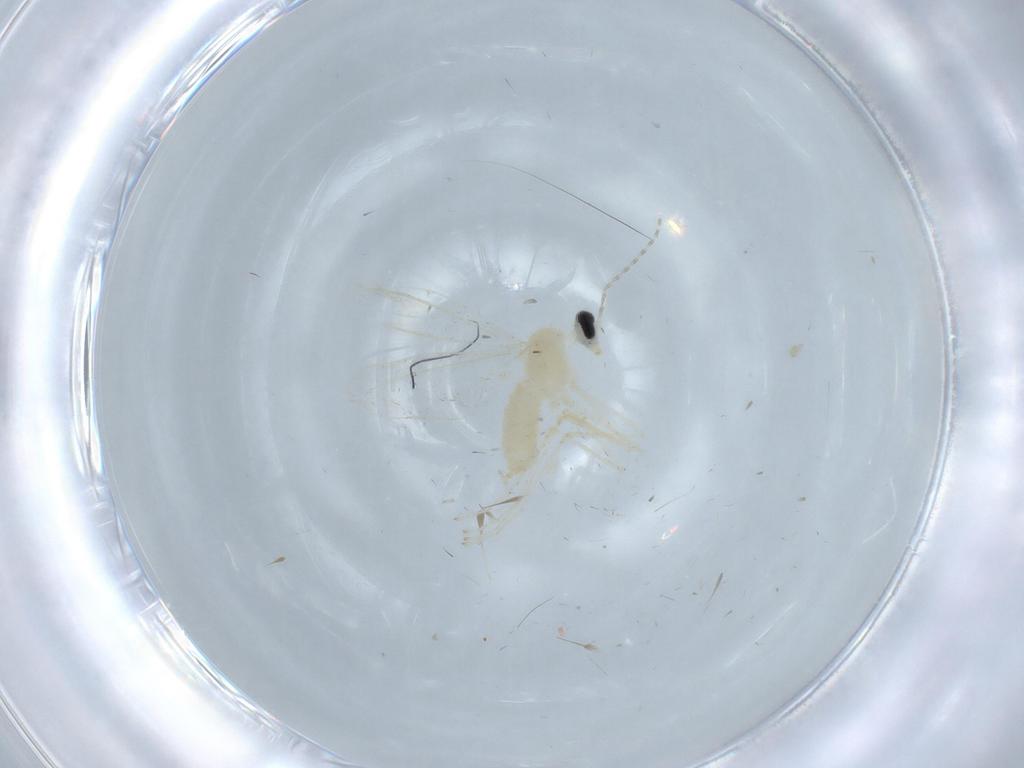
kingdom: Animalia
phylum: Arthropoda
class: Insecta
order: Diptera
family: Cecidomyiidae
